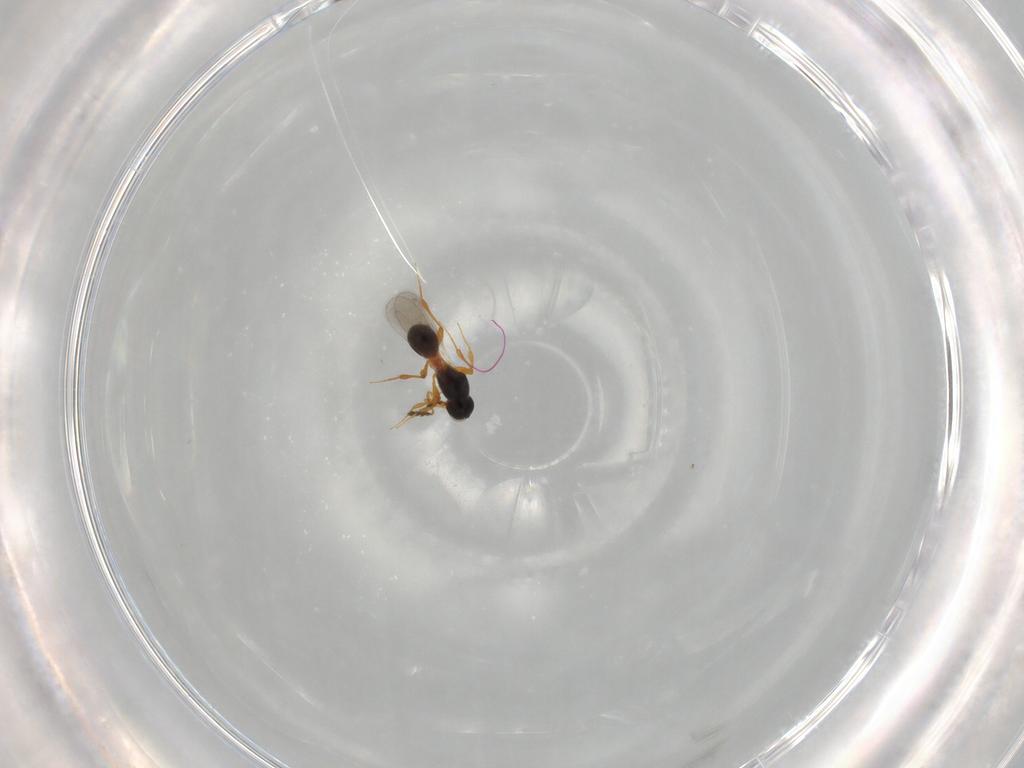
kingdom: Animalia
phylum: Arthropoda
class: Insecta
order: Hymenoptera
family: Platygastridae
